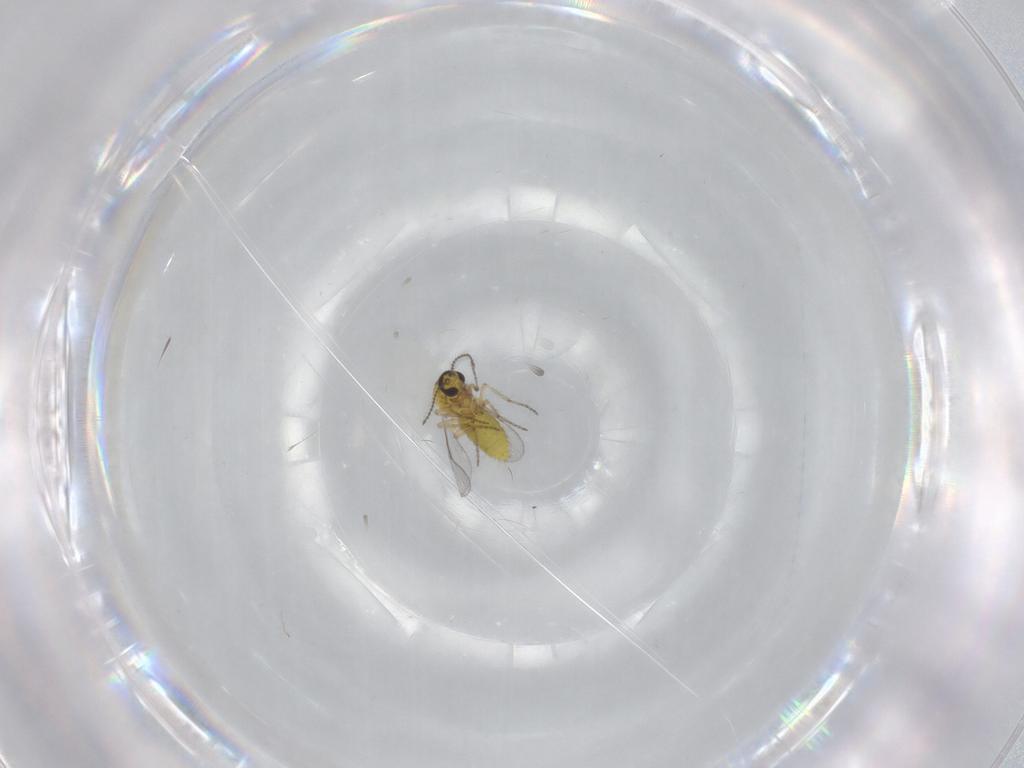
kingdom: Animalia
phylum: Arthropoda
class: Insecta
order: Diptera
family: Ceratopogonidae
